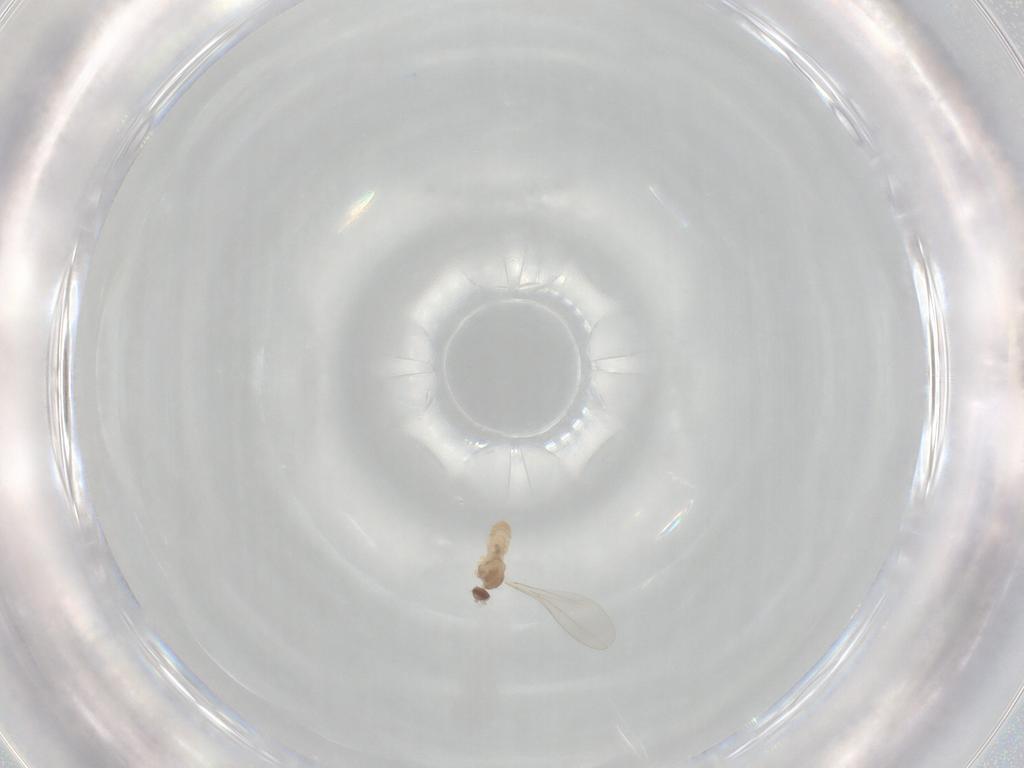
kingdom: Animalia
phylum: Arthropoda
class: Insecta
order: Diptera
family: Cecidomyiidae
